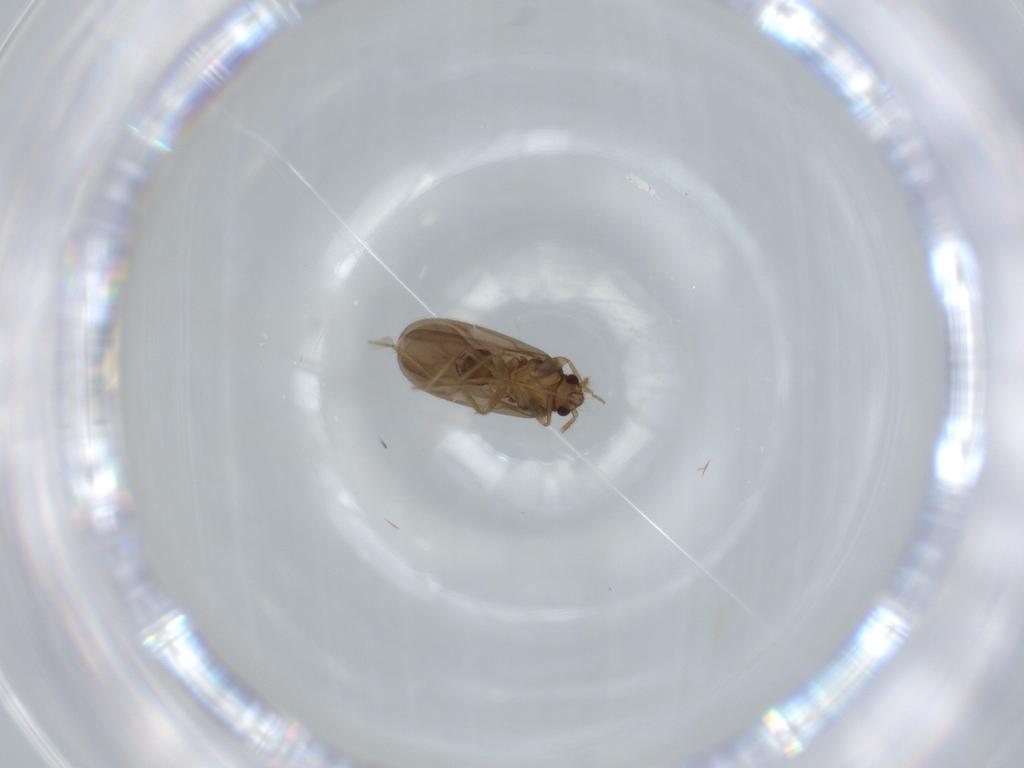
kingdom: Animalia
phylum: Arthropoda
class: Insecta
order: Hemiptera
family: Ceratocombidae
